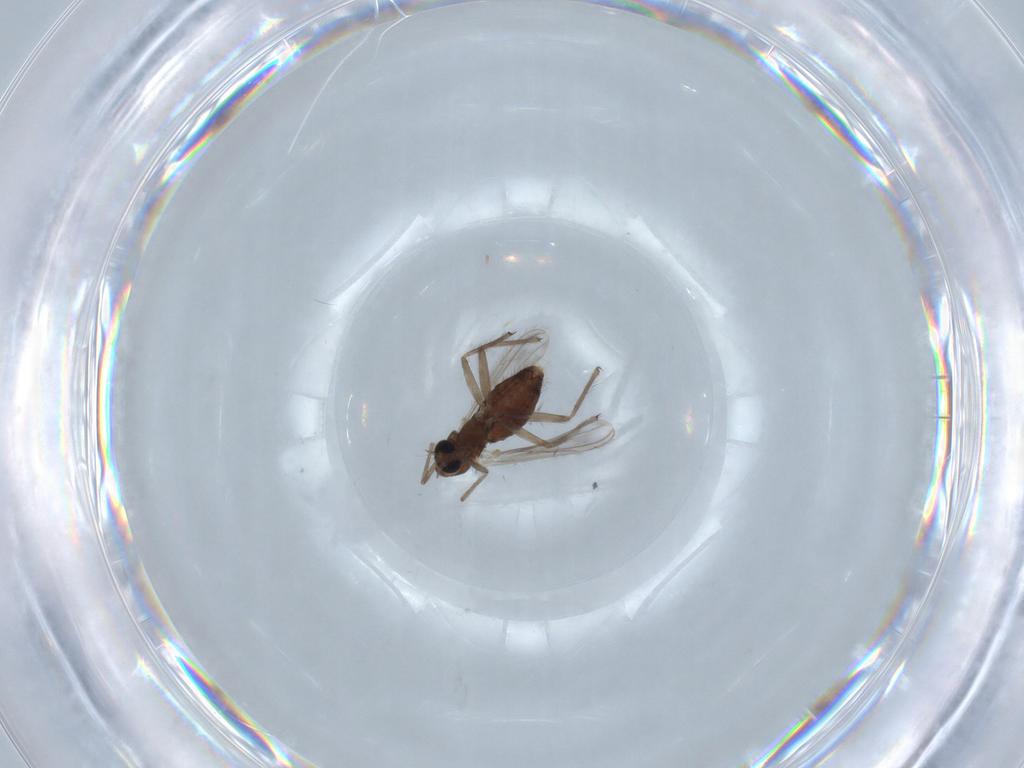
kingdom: Animalia
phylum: Arthropoda
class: Insecta
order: Diptera
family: Chironomidae
